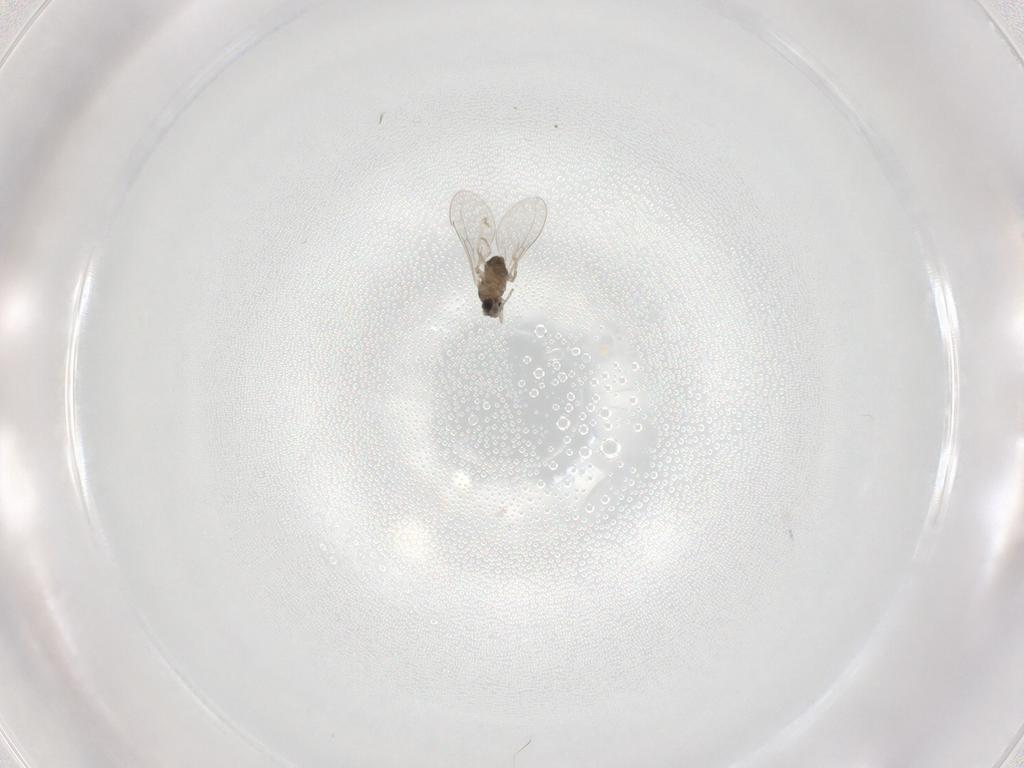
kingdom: Animalia
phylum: Arthropoda
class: Insecta
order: Diptera
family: Cecidomyiidae
